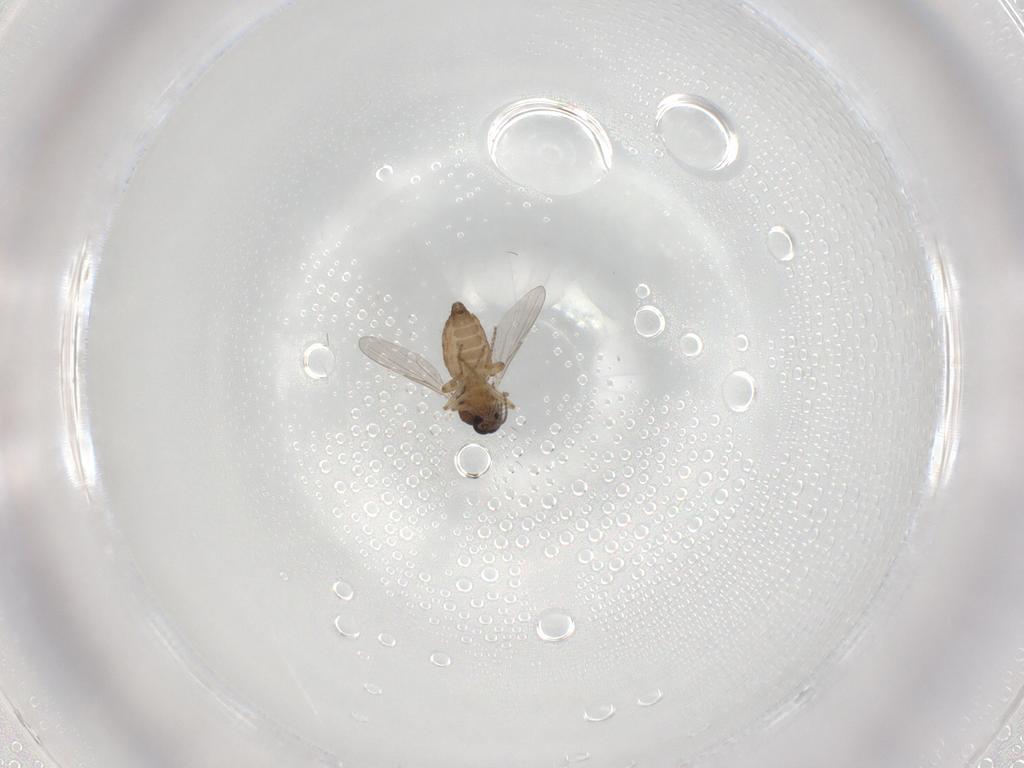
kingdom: Animalia
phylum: Arthropoda
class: Insecta
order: Diptera
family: Ceratopogonidae
